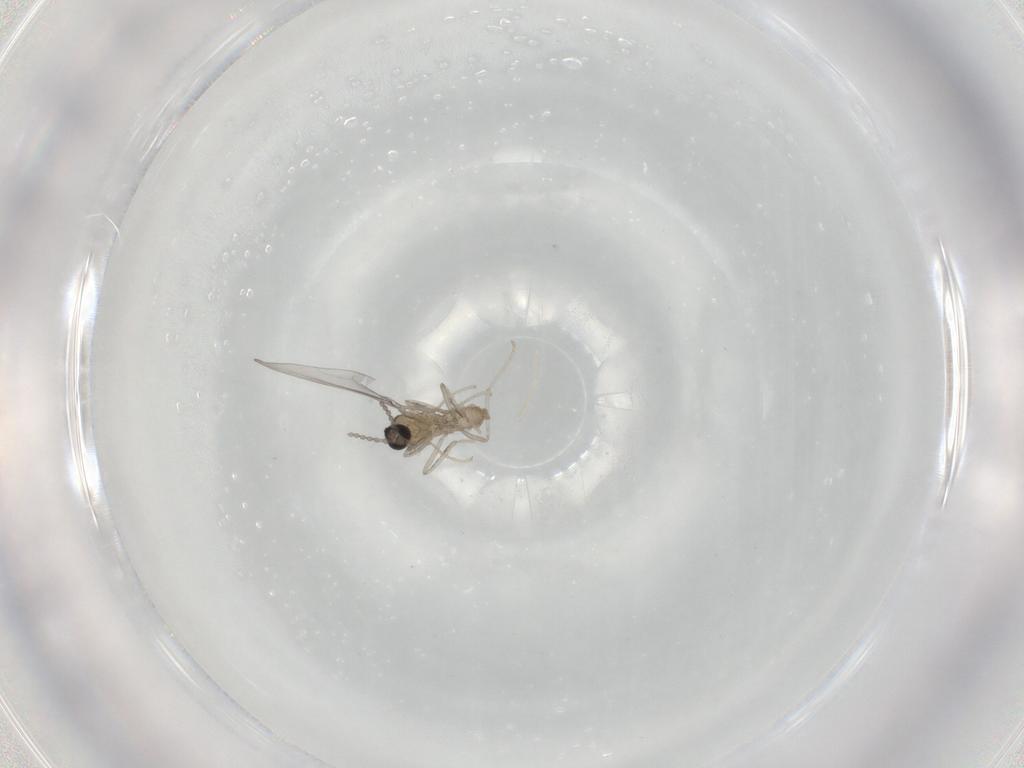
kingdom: Animalia
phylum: Arthropoda
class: Insecta
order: Diptera
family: Cecidomyiidae
